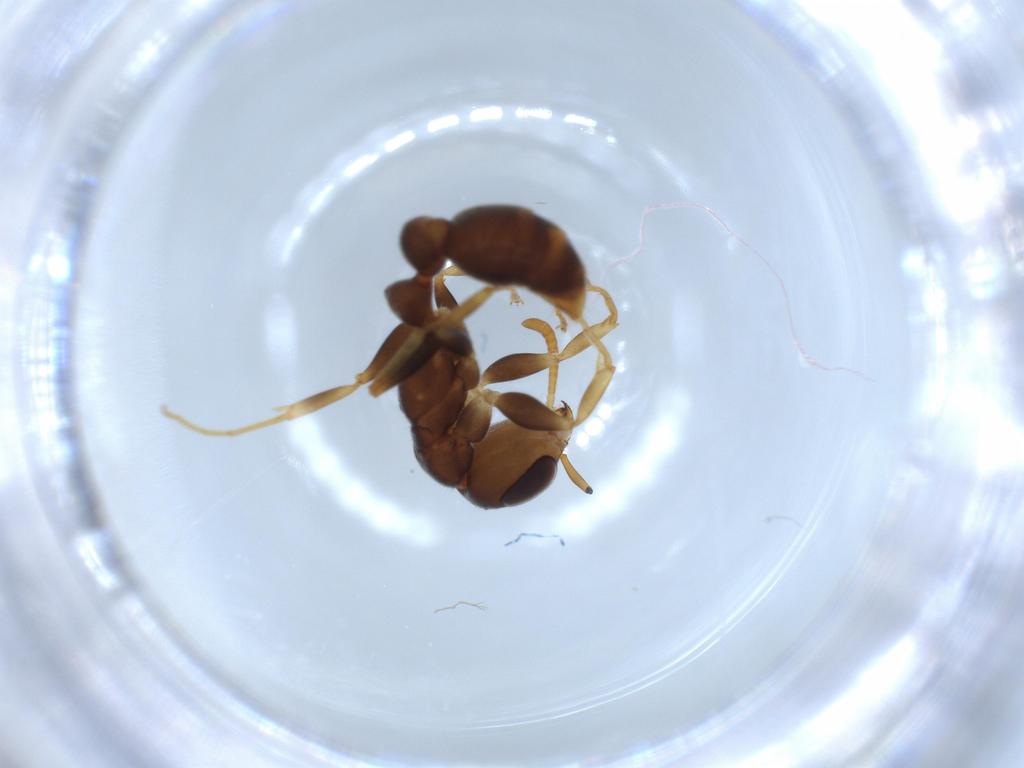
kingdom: Animalia
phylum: Arthropoda
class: Insecta
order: Hymenoptera
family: Formicidae
